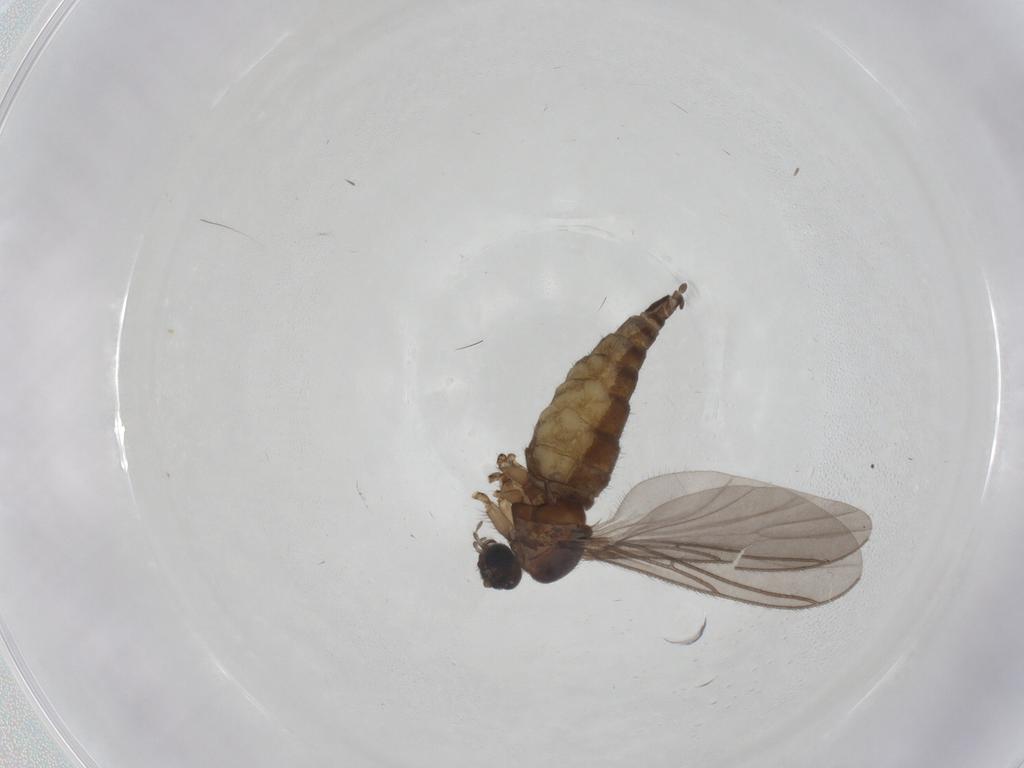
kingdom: Animalia
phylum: Arthropoda
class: Insecta
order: Diptera
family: Sciaridae
